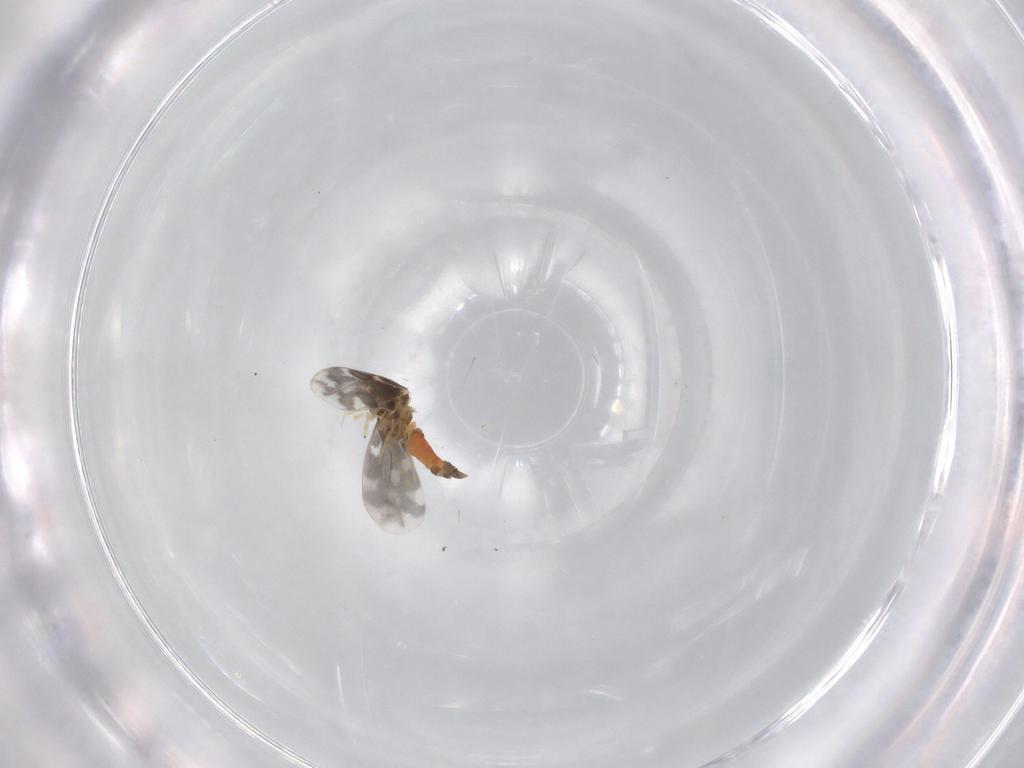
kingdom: Animalia
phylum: Arthropoda
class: Insecta
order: Hemiptera
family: Aleyrodidae
